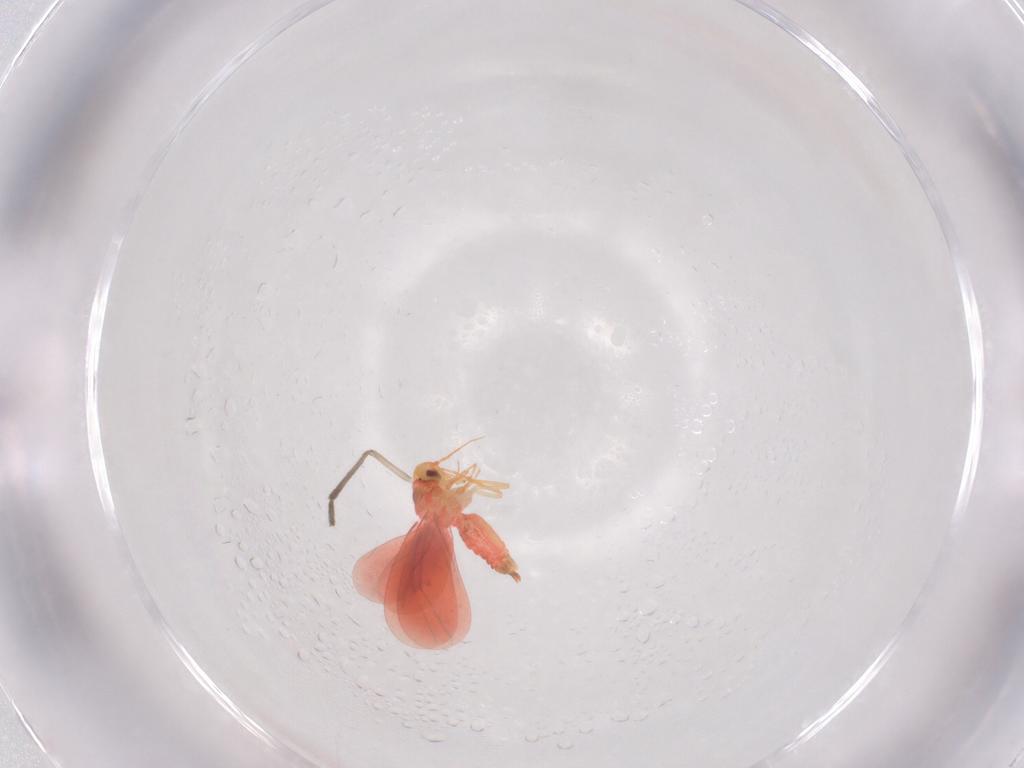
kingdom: Animalia
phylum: Arthropoda
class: Insecta
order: Hemiptera
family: Aleyrodidae
